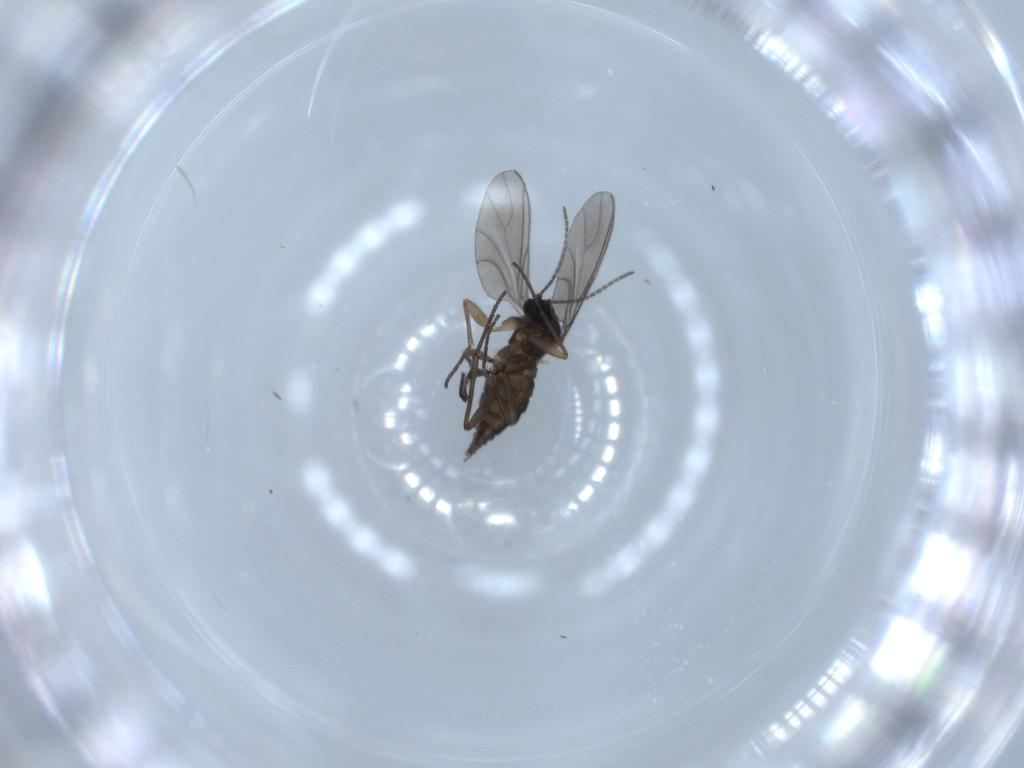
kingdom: Animalia
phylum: Arthropoda
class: Insecta
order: Diptera
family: Sciaridae
